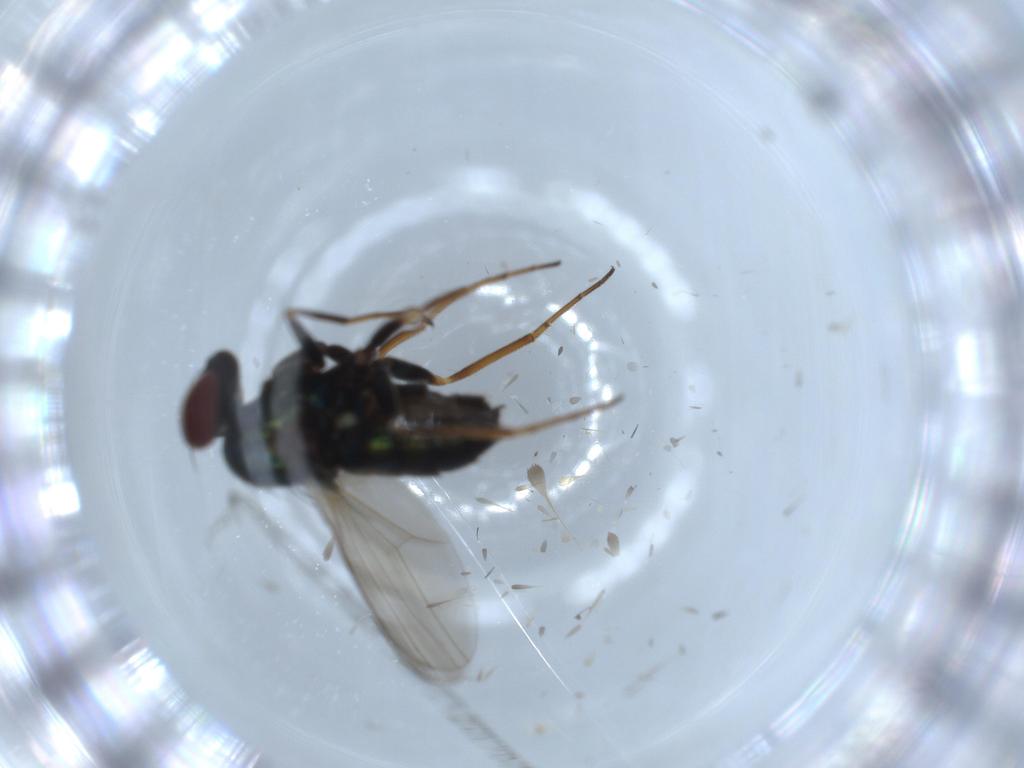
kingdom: Animalia
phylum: Arthropoda
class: Insecta
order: Diptera
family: Dolichopodidae
